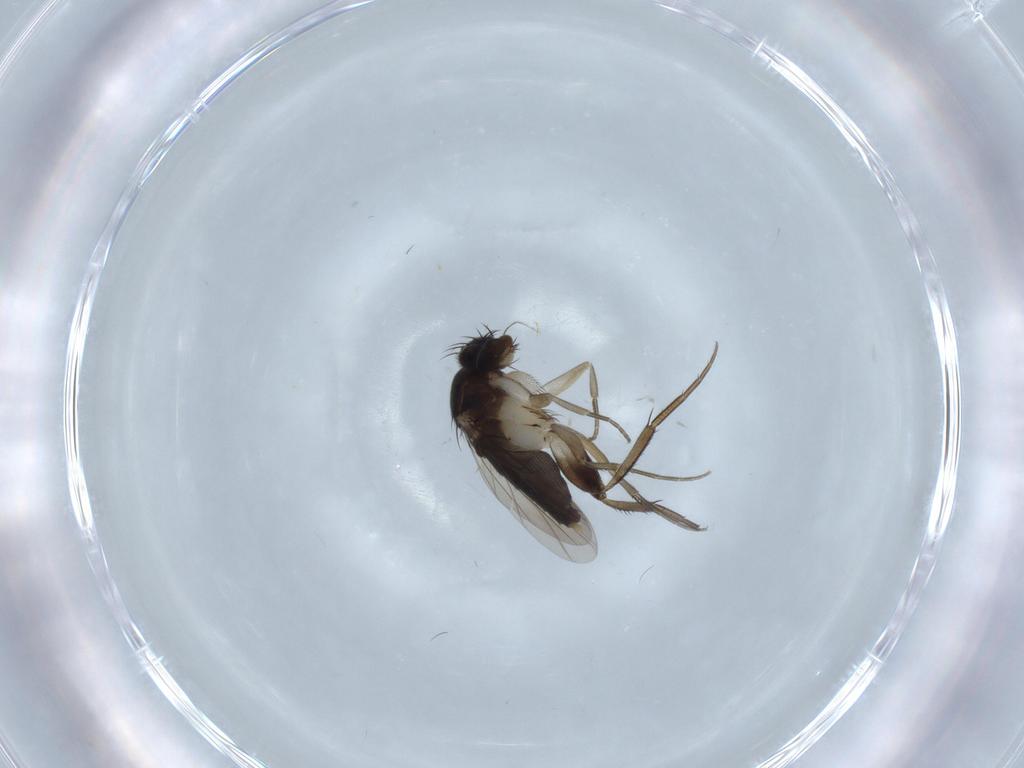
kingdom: Animalia
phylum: Arthropoda
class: Insecta
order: Diptera
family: Phoridae
